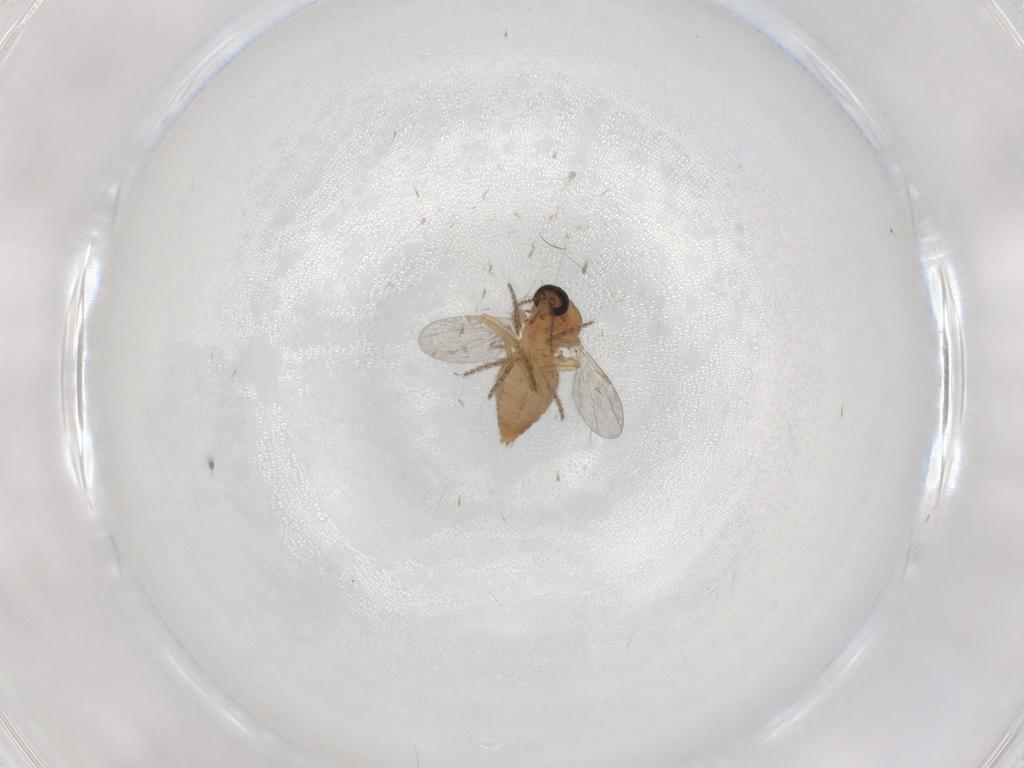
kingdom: Animalia
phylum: Arthropoda
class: Insecta
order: Diptera
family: Ceratopogonidae
